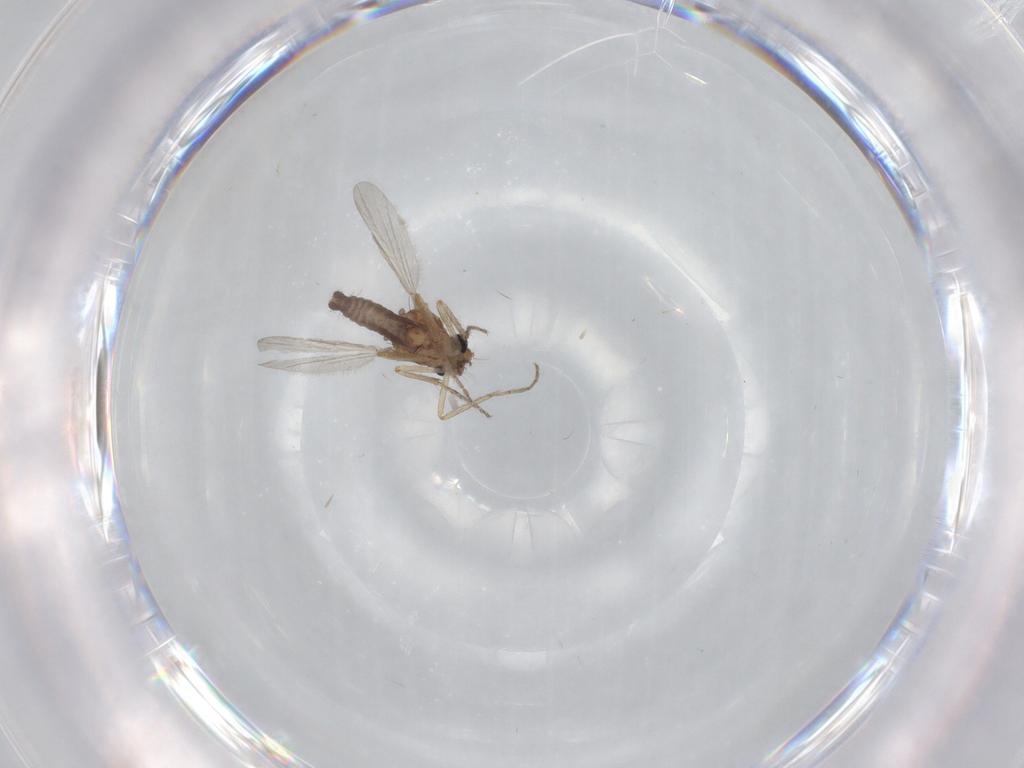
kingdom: Animalia
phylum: Arthropoda
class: Insecta
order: Diptera
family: Ceratopogonidae
